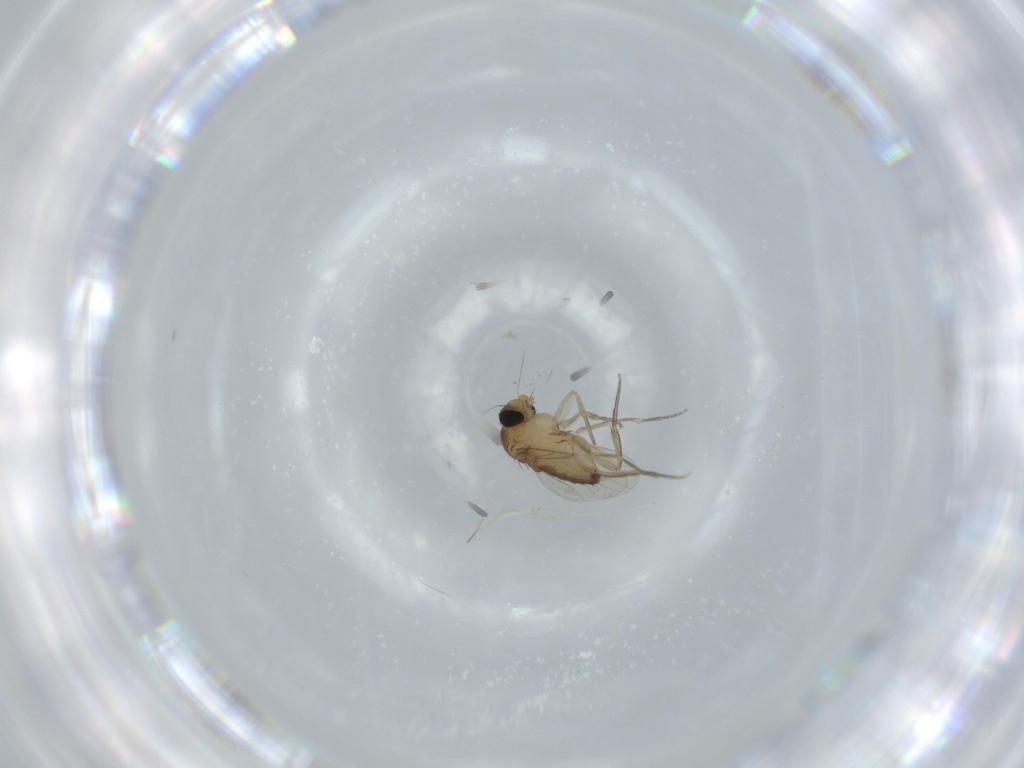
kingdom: Animalia
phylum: Arthropoda
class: Insecta
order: Diptera
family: Cecidomyiidae
